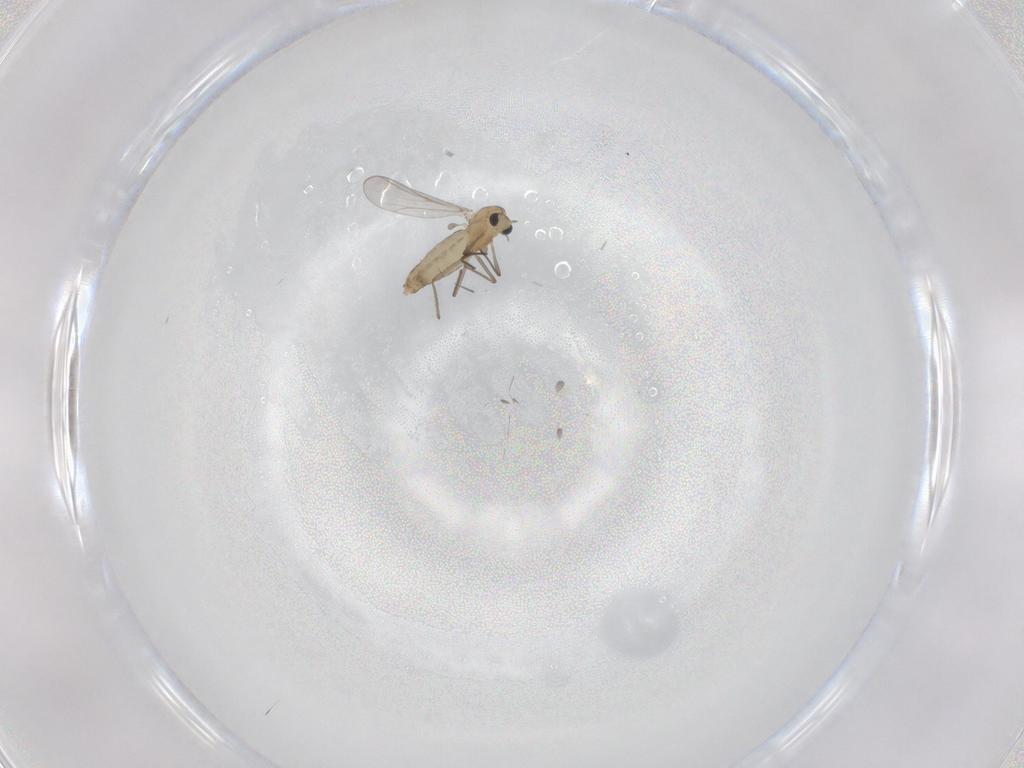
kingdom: Animalia
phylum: Arthropoda
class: Insecta
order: Diptera
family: Chironomidae
